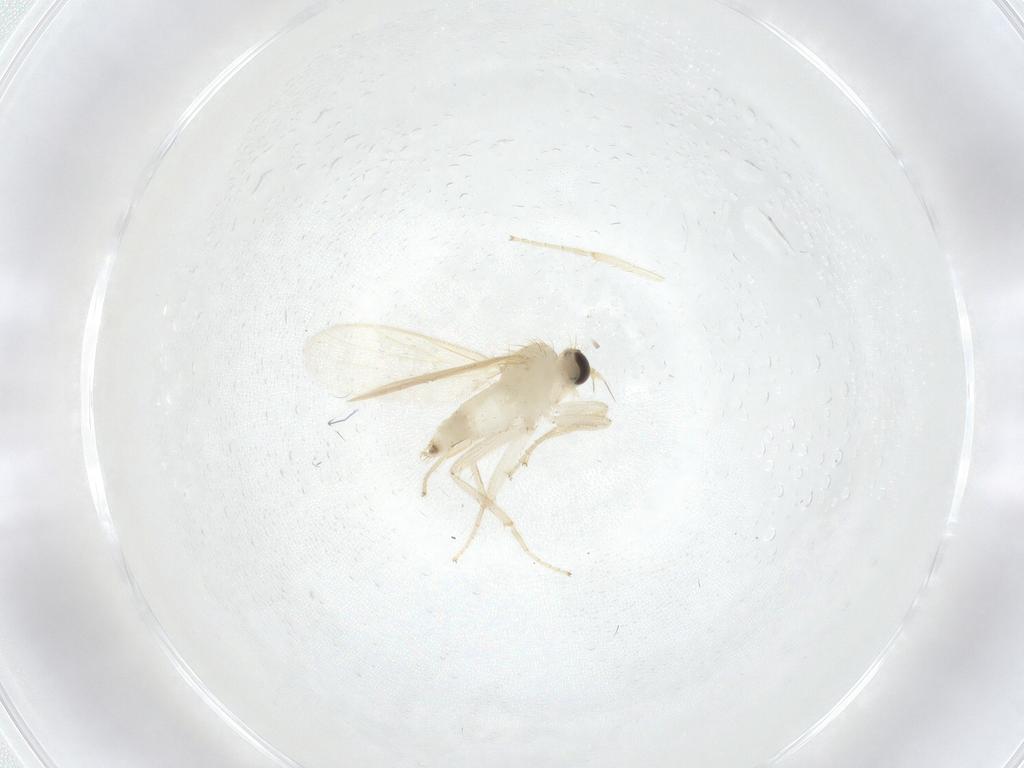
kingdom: Animalia
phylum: Arthropoda
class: Insecta
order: Diptera
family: Hybotidae
